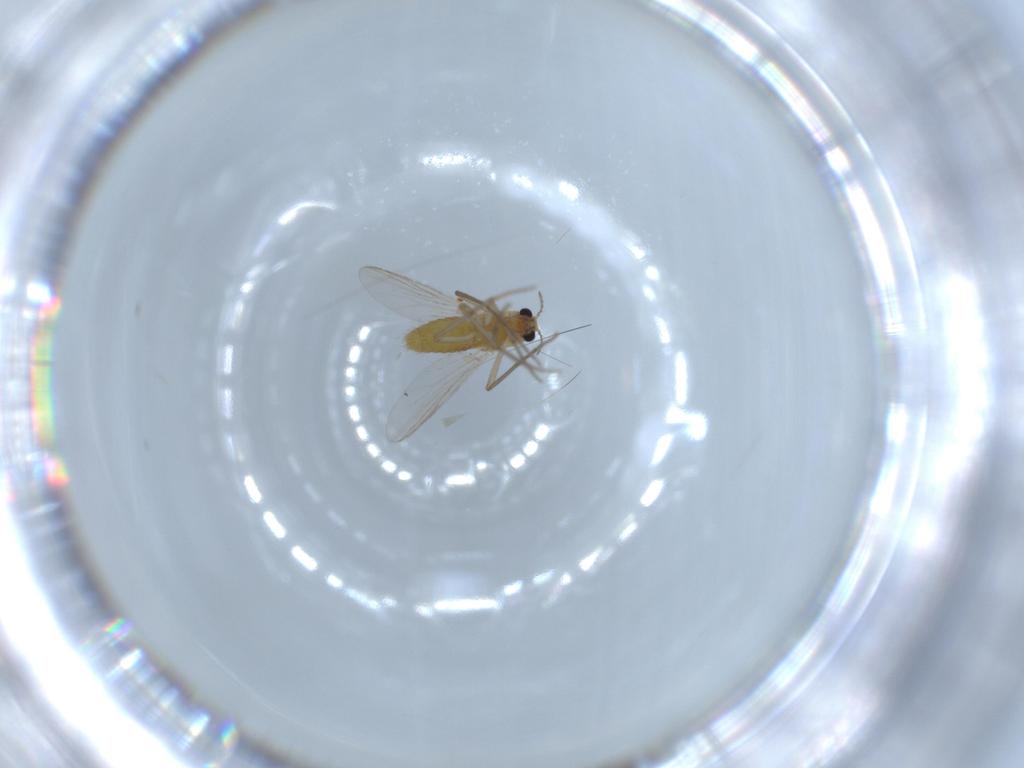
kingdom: Animalia
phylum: Arthropoda
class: Insecta
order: Diptera
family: Chironomidae
